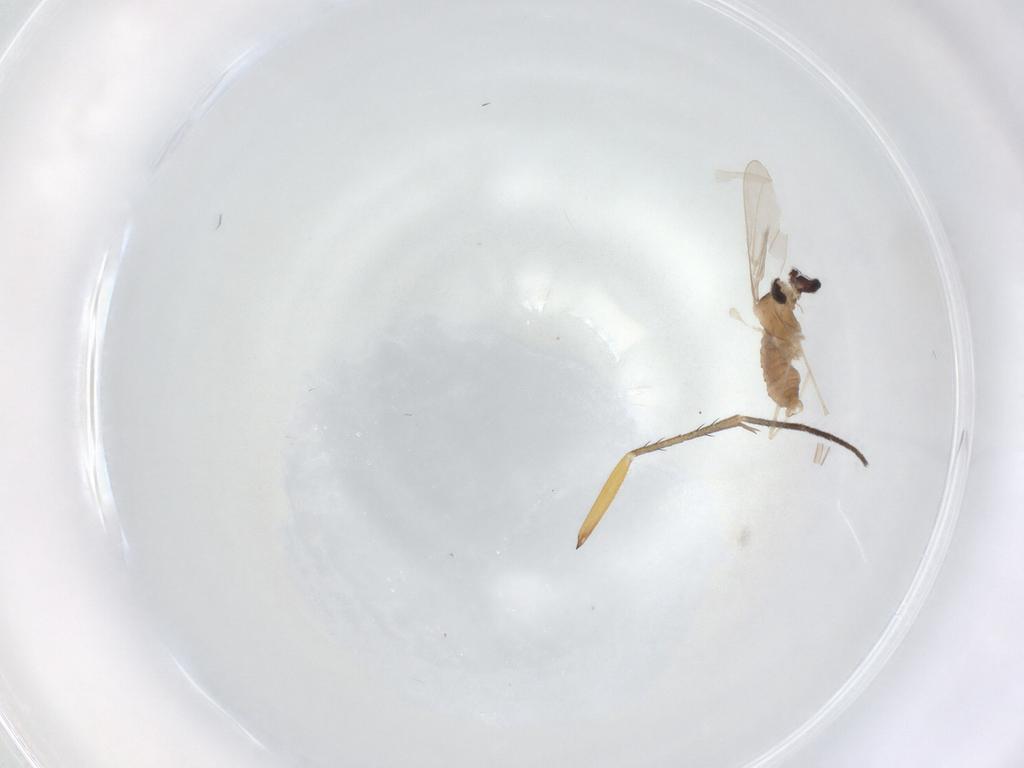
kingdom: Animalia
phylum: Arthropoda
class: Insecta
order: Diptera
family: Sciaridae
